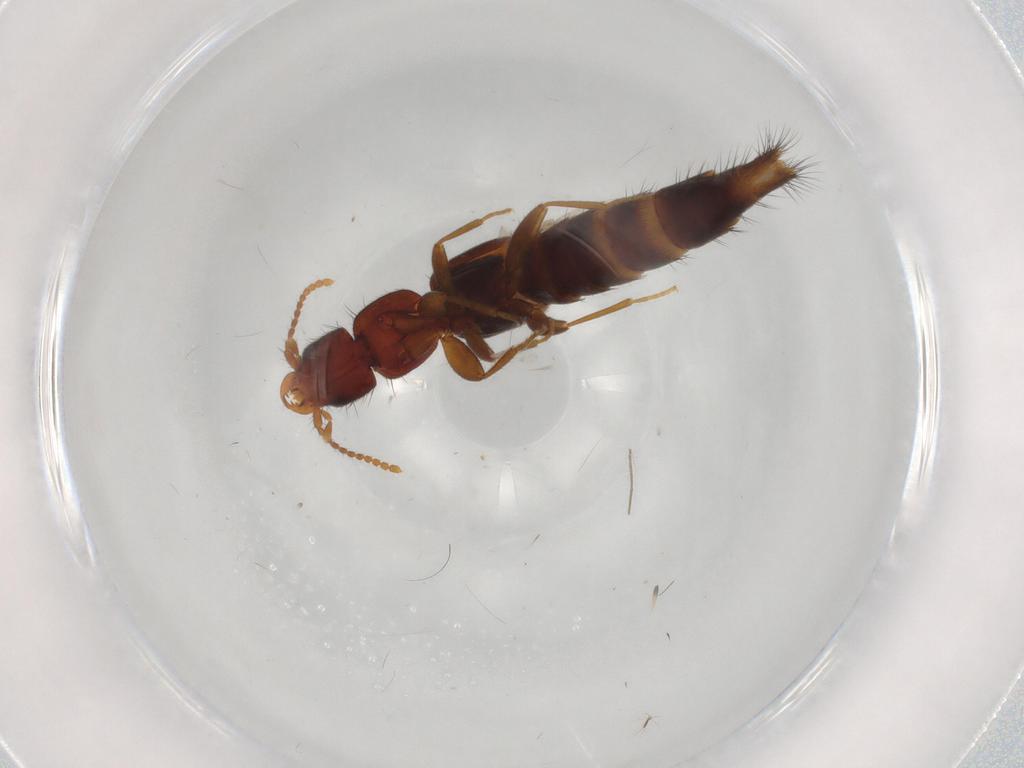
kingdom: Animalia
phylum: Arthropoda
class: Insecta
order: Coleoptera
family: Staphylinidae
